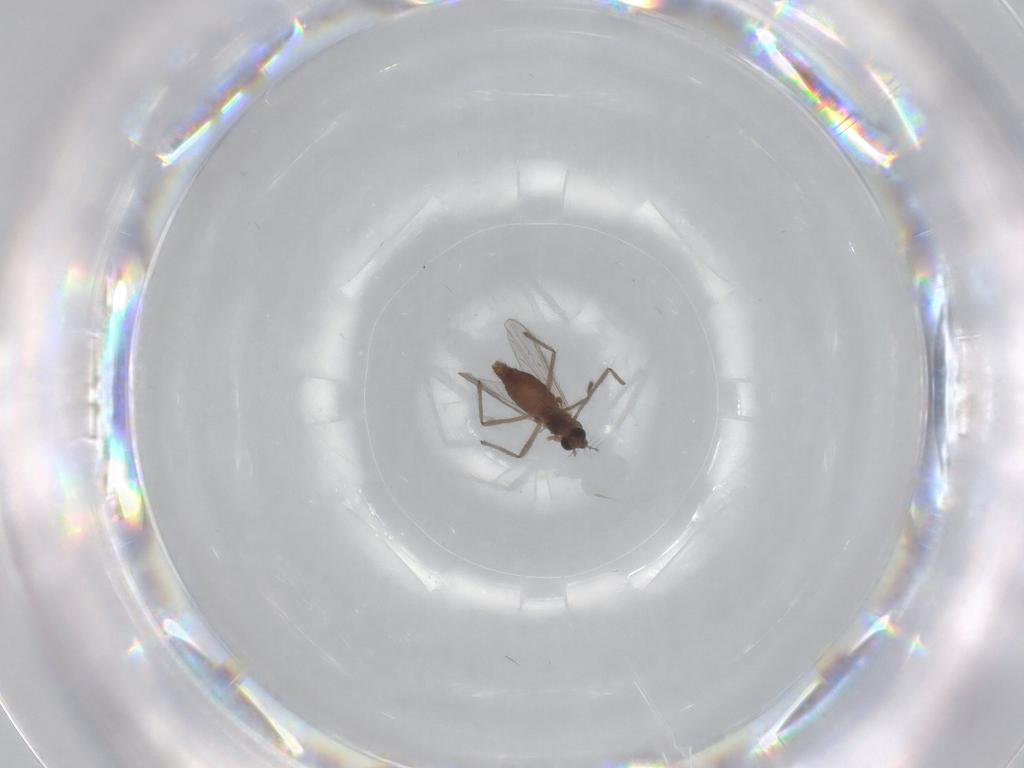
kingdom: Animalia
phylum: Arthropoda
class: Insecta
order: Diptera
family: Chironomidae
